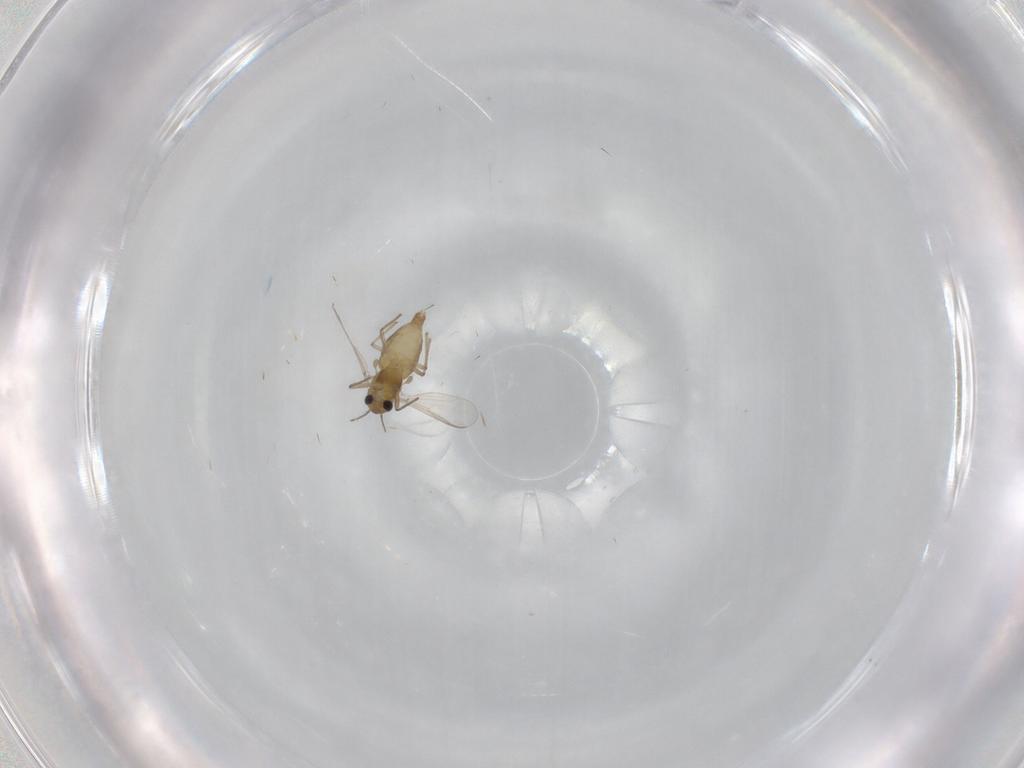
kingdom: Animalia
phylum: Arthropoda
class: Insecta
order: Diptera
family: Chironomidae
